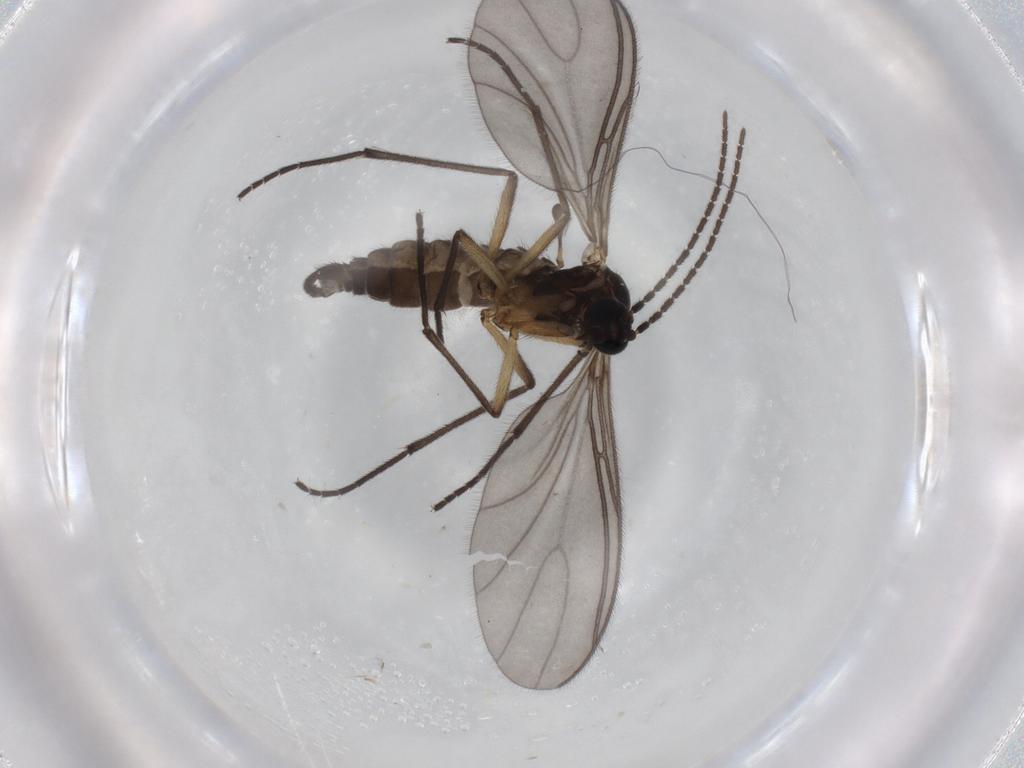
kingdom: Animalia
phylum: Arthropoda
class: Insecta
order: Diptera
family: Sciaridae
